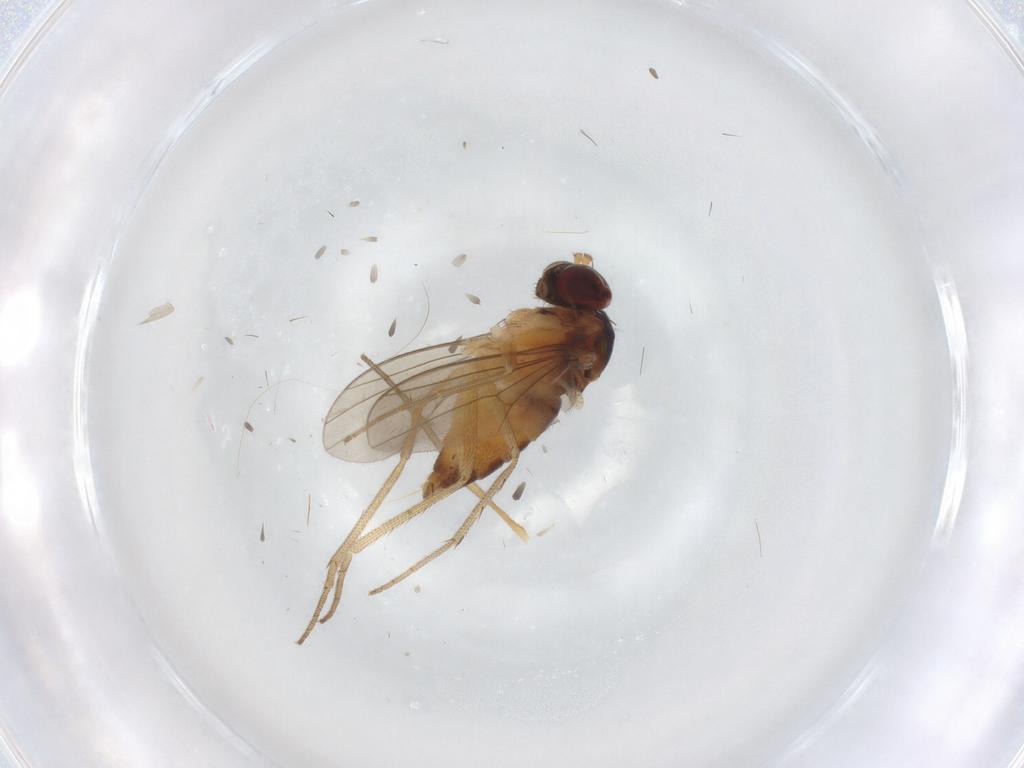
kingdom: Animalia
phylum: Arthropoda
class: Insecta
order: Diptera
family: Dolichopodidae
